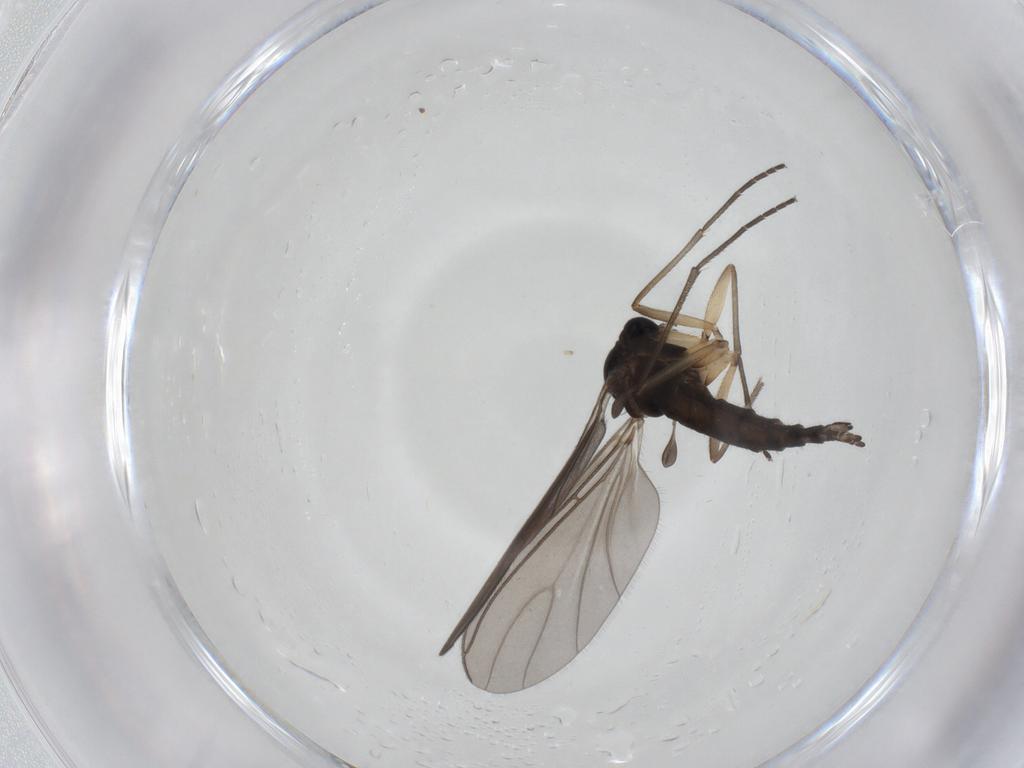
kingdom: Animalia
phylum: Arthropoda
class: Insecta
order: Diptera
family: Sciaridae
